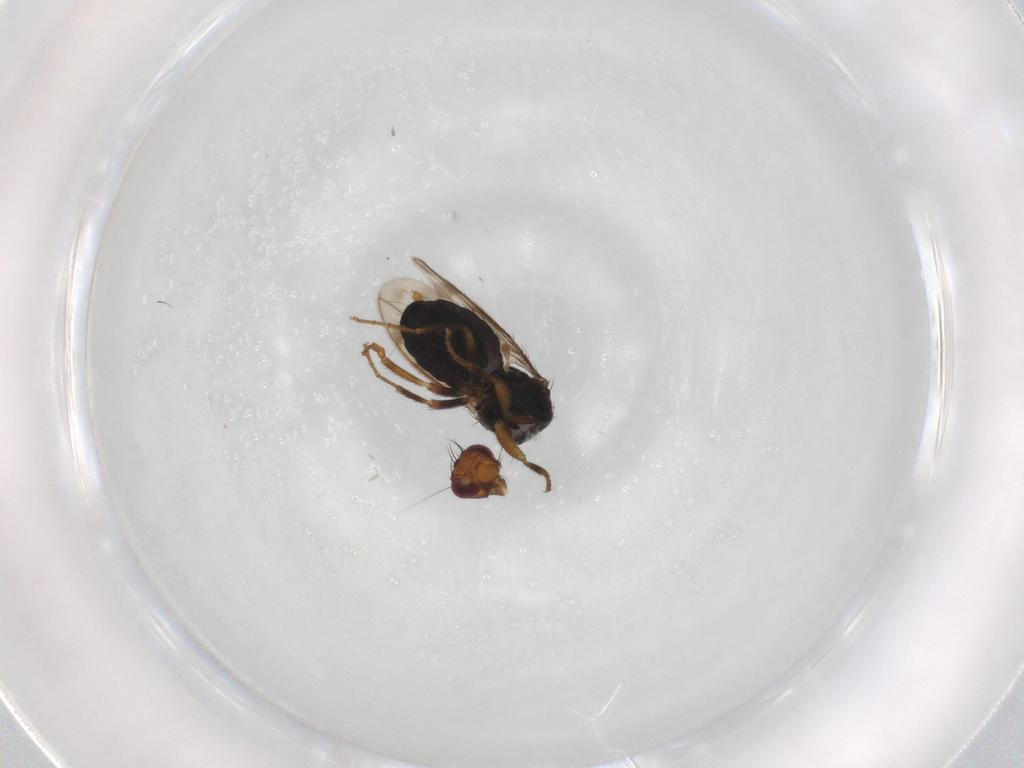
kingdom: Animalia
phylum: Arthropoda
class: Insecta
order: Diptera
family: Sphaeroceridae
